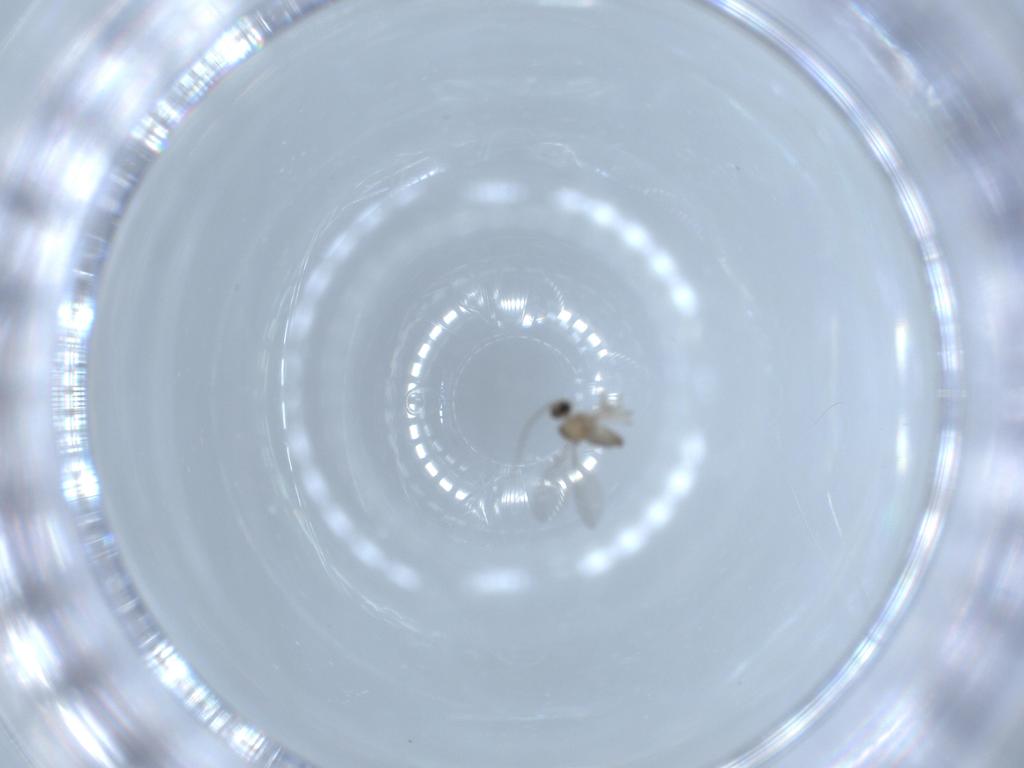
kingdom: Animalia
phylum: Arthropoda
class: Insecta
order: Diptera
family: Cecidomyiidae
